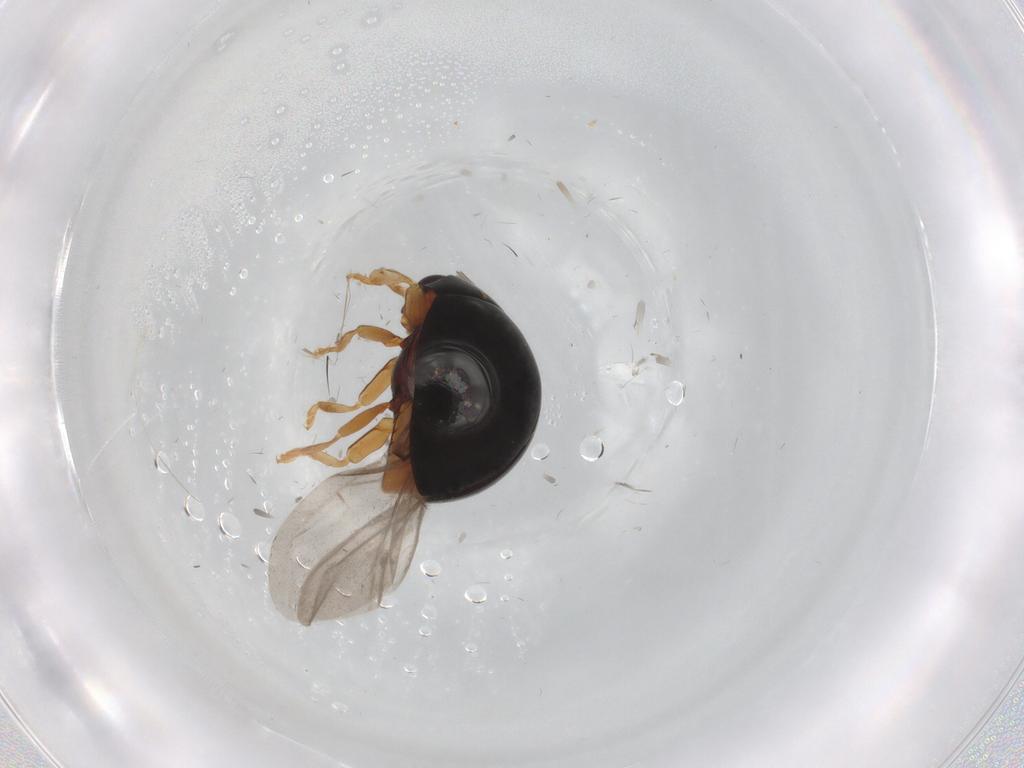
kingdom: Animalia
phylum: Arthropoda
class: Insecta
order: Coleoptera
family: Coccinellidae
